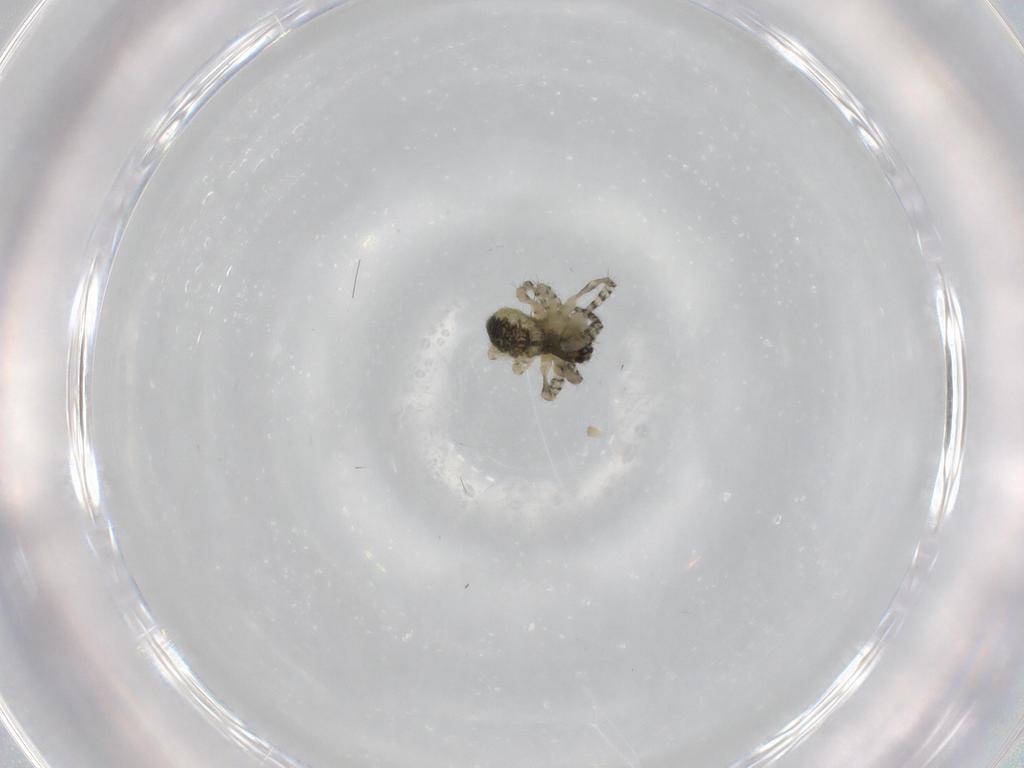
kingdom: Animalia
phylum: Arthropoda
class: Arachnida
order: Araneae
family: Araneidae
